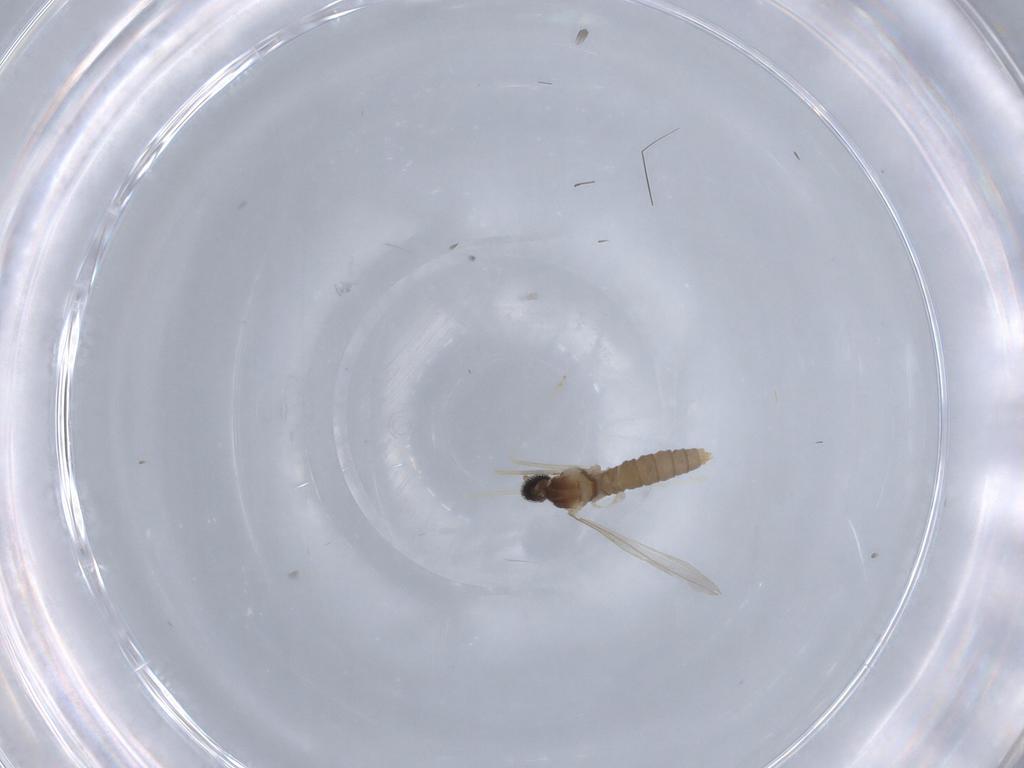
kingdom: Animalia
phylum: Arthropoda
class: Insecta
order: Diptera
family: Cecidomyiidae
